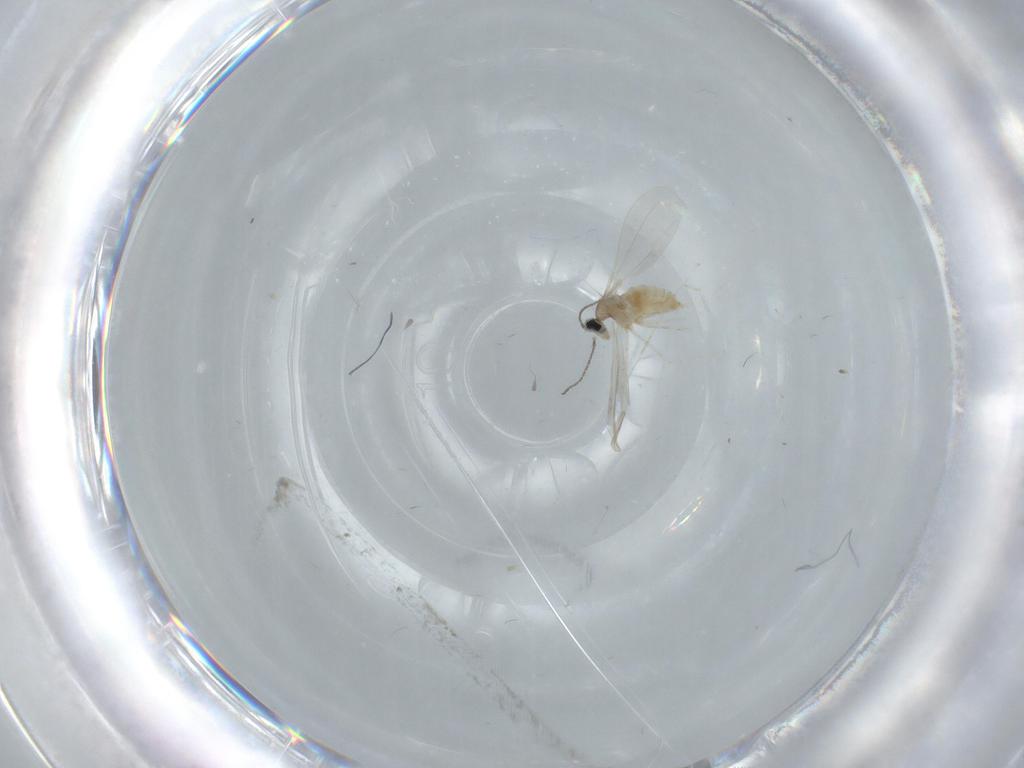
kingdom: Animalia
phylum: Arthropoda
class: Insecta
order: Diptera
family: Cecidomyiidae
